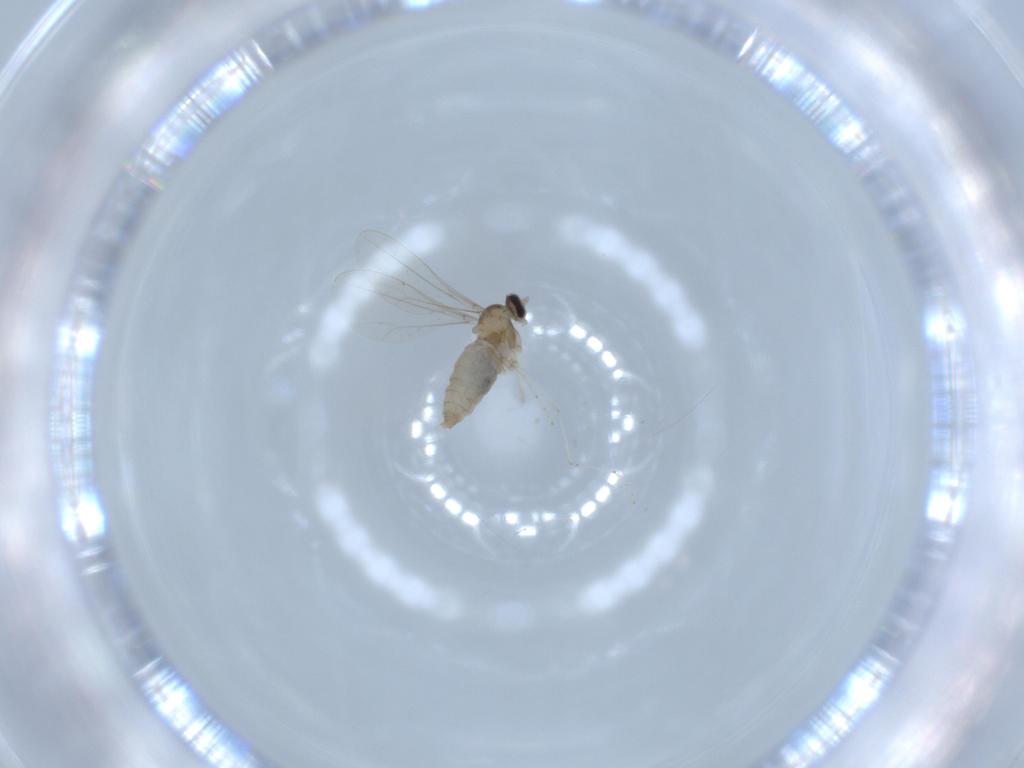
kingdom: Animalia
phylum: Arthropoda
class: Insecta
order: Diptera
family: Cecidomyiidae
